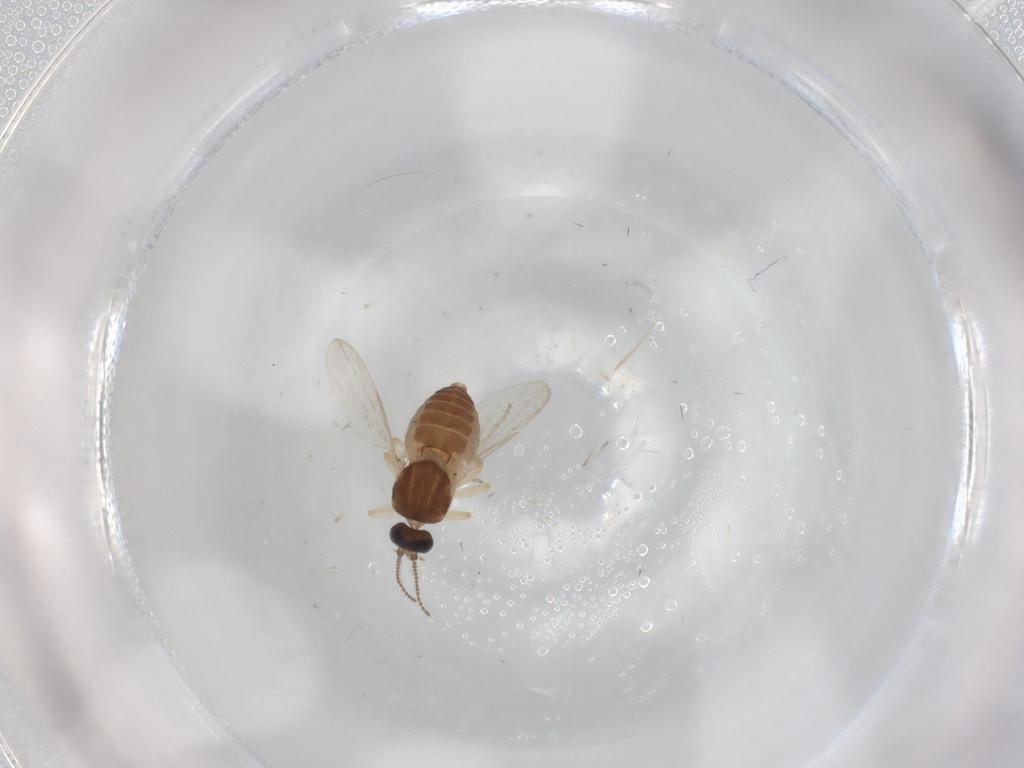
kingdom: Animalia
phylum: Arthropoda
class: Insecta
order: Diptera
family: Ceratopogonidae
